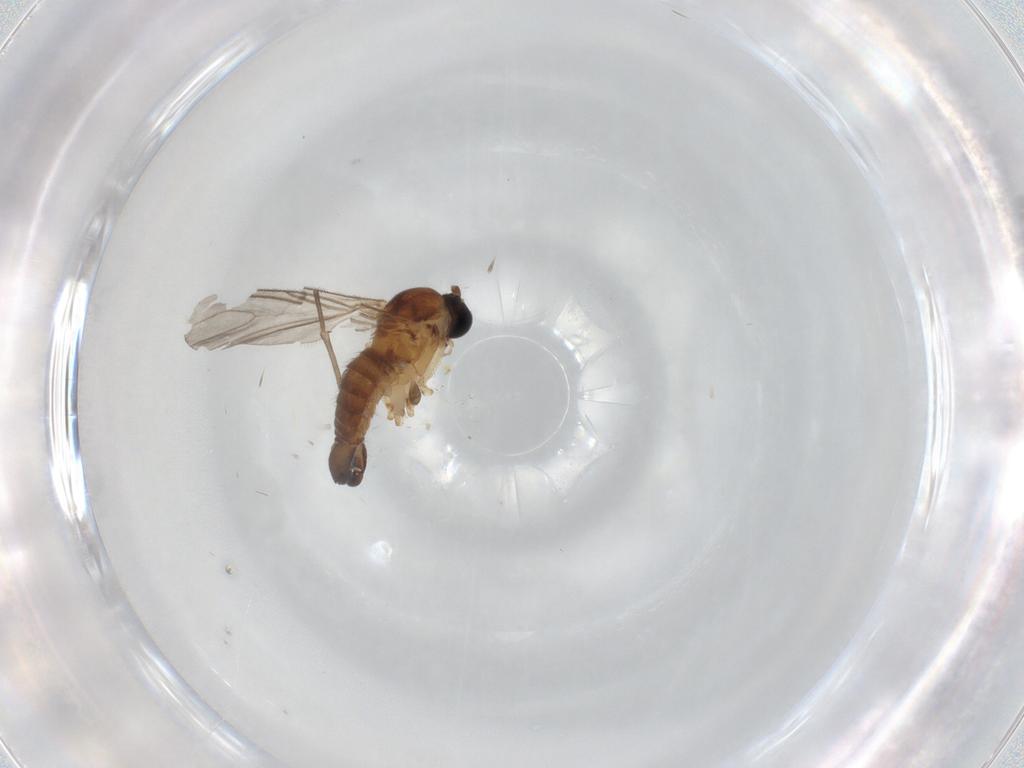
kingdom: Animalia
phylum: Arthropoda
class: Insecta
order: Diptera
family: Sciaridae
